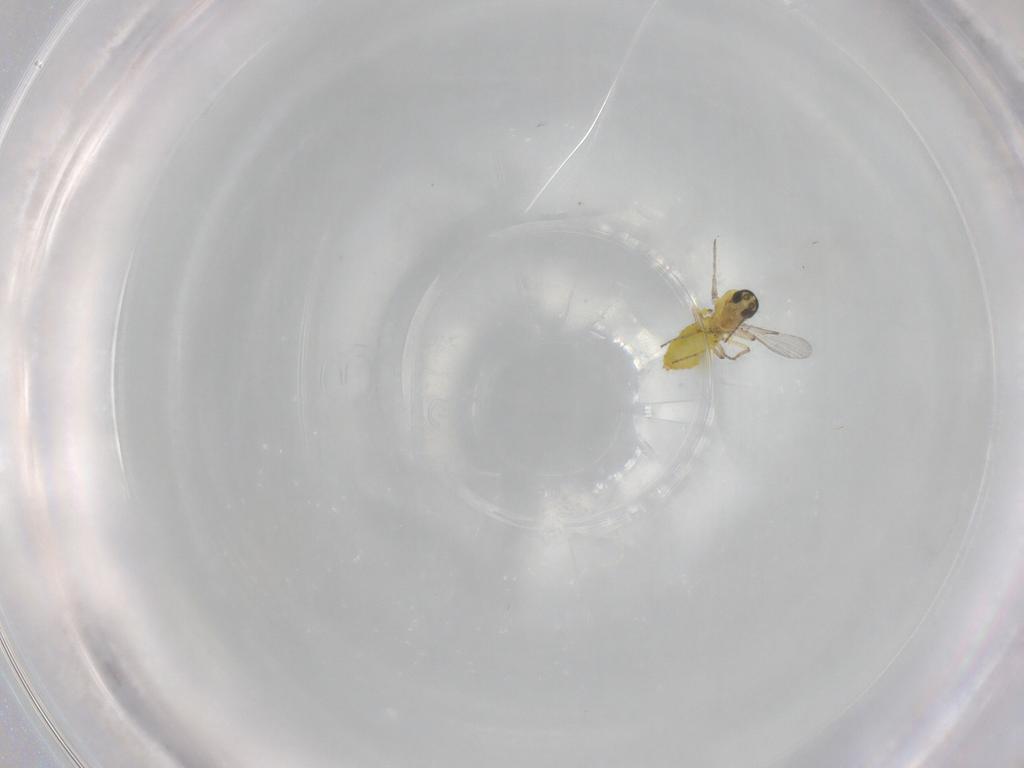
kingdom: Animalia
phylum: Arthropoda
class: Insecta
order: Diptera
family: Ceratopogonidae
